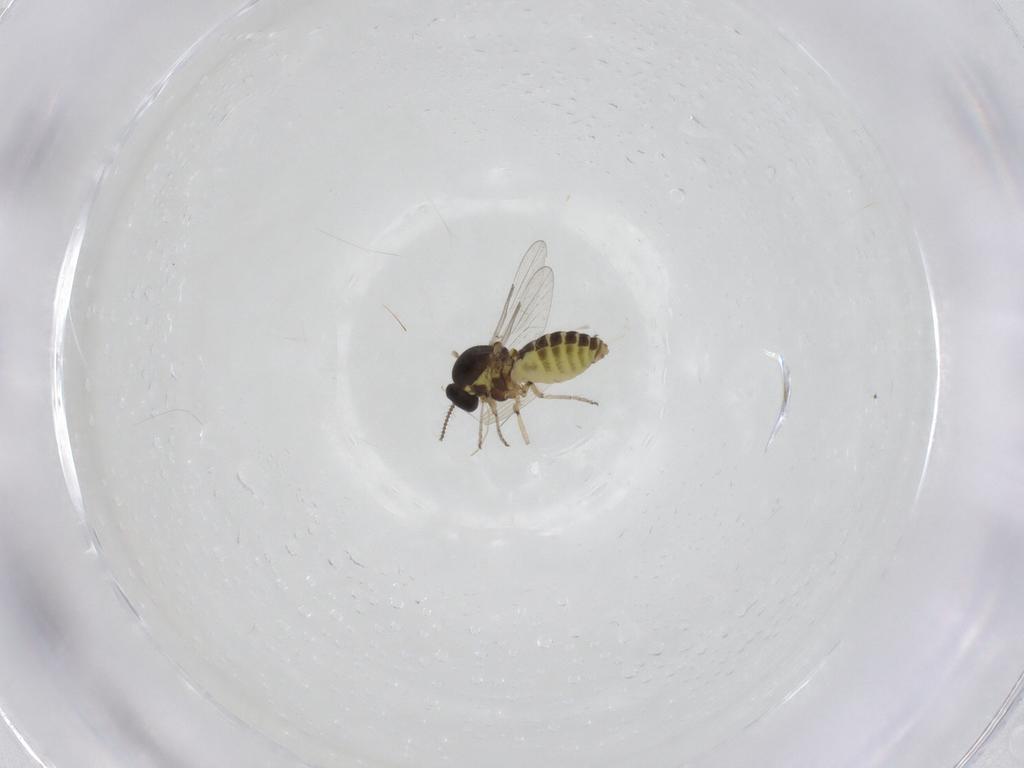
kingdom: Animalia
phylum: Arthropoda
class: Insecta
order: Diptera
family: Ceratopogonidae
